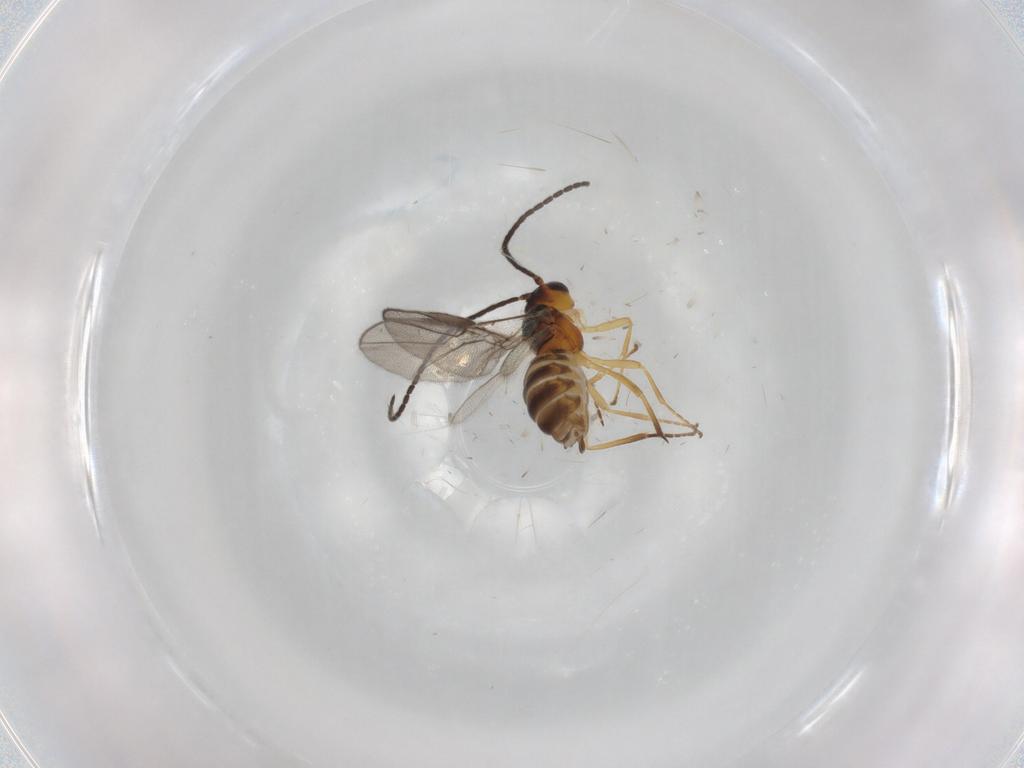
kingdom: Animalia
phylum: Arthropoda
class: Insecta
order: Hymenoptera
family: Braconidae
